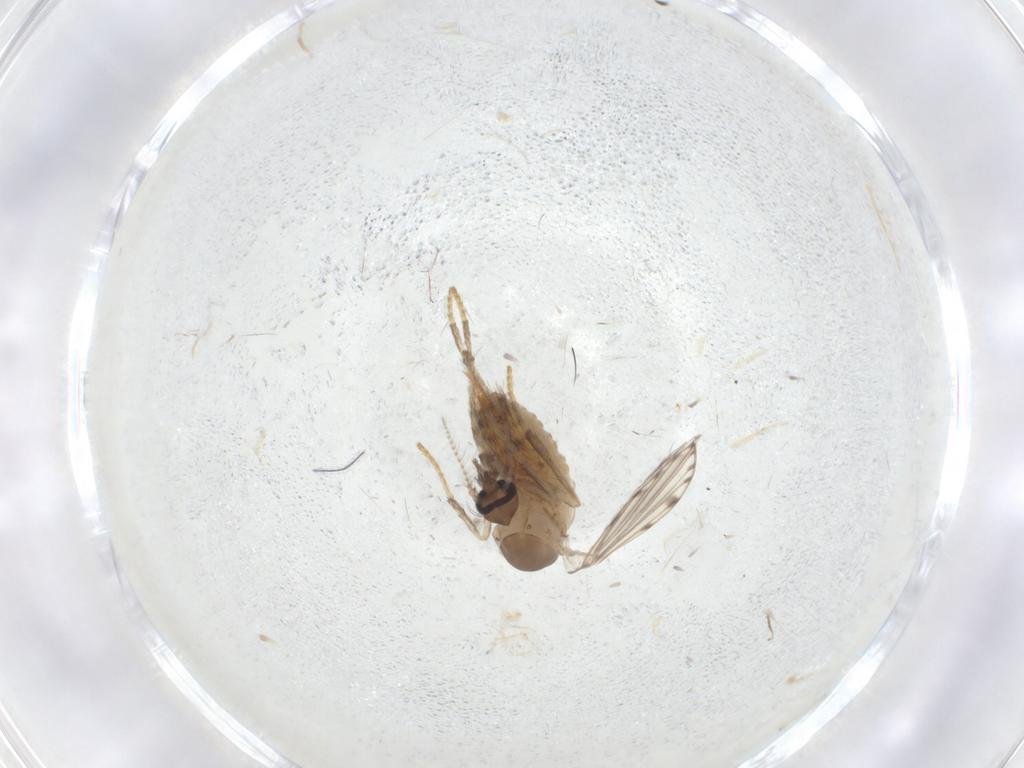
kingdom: Animalia
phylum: Arthropoda
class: Insecta
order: Diptera
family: Psychodidae
